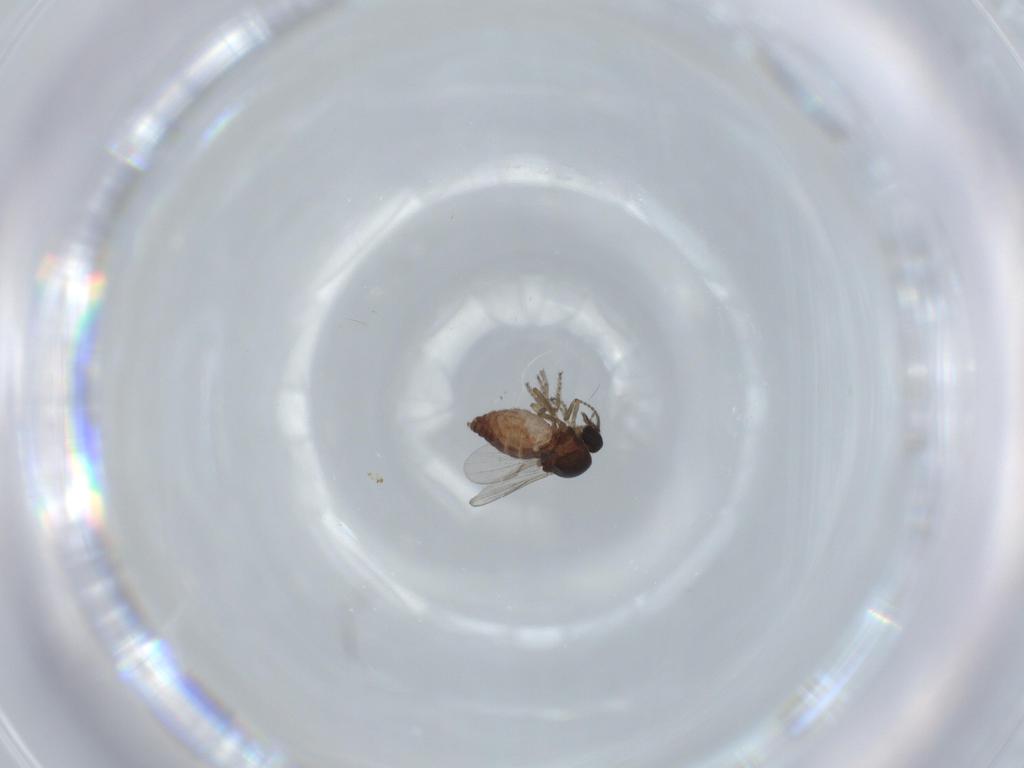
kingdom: Animalia
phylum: Arthropoda
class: Insecta
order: Diptera
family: Ceratopogonidae
